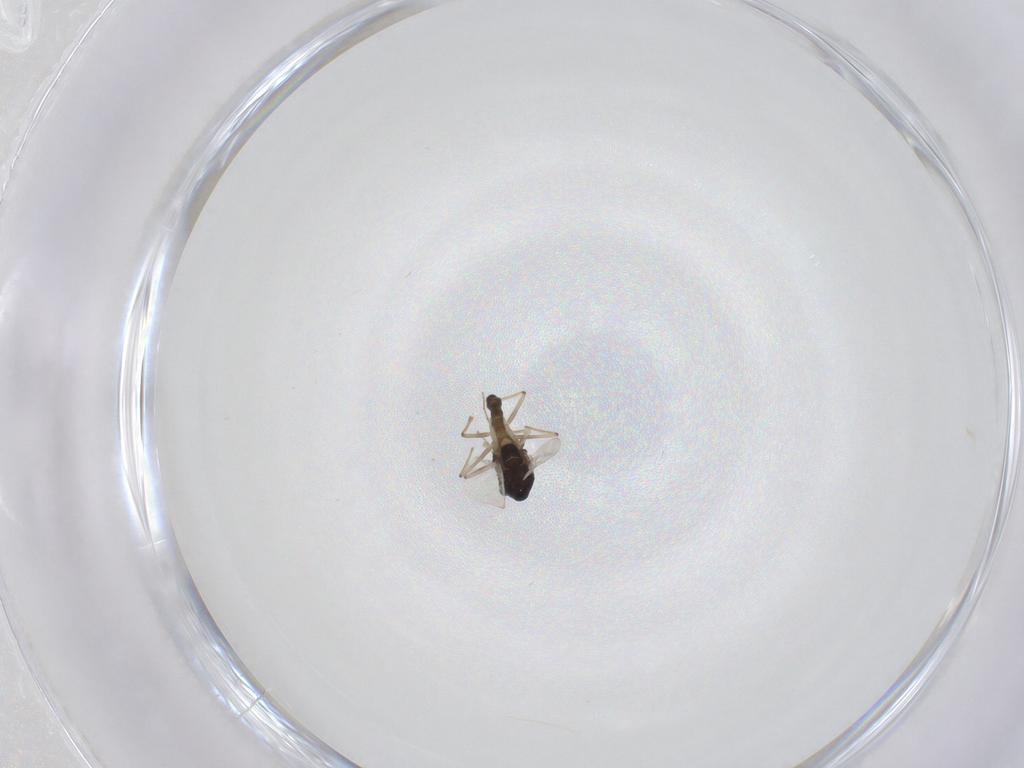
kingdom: Animalia
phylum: Arthropoda
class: Insecta
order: Diptera
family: Chironomidae
